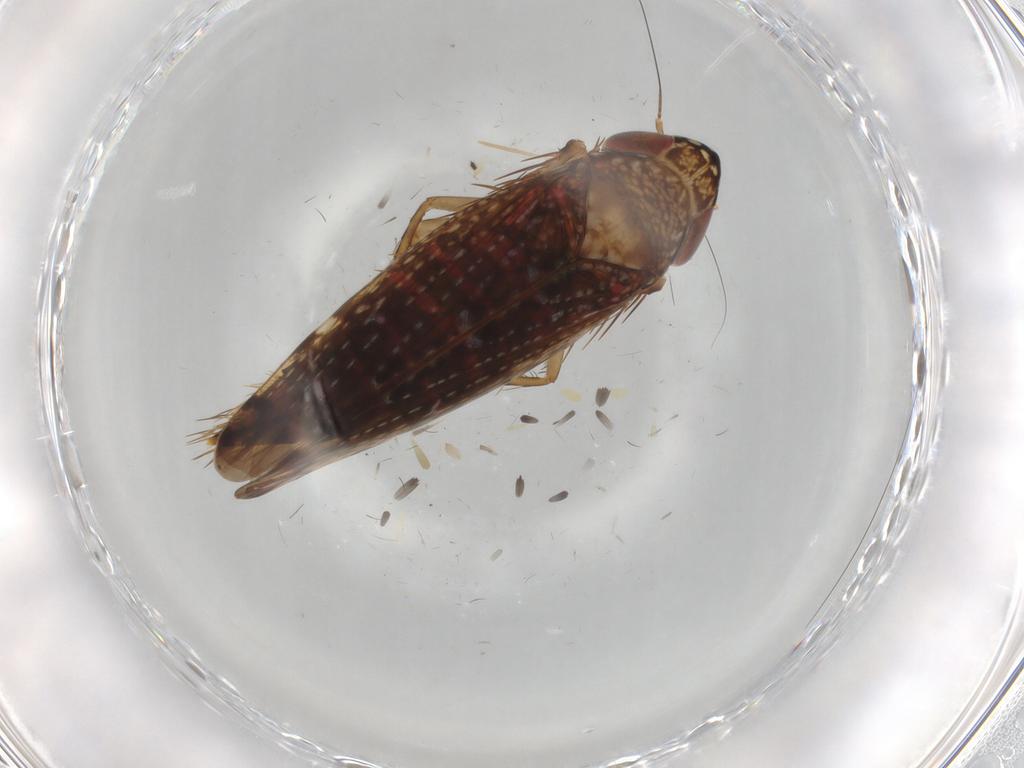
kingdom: Animalia
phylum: Arthropoda
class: Insecta
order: Hemiptera
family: Cicadellidae
